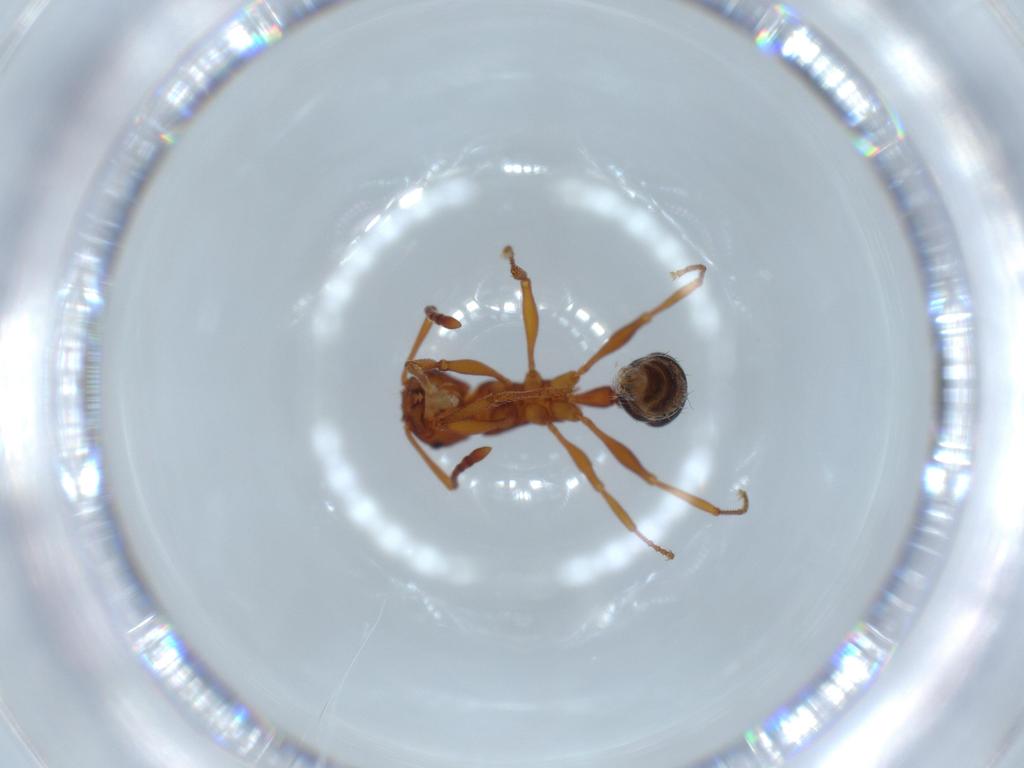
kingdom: Animalia
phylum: Arthropoda
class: Insecta
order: Hymenoptera
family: Formicidae
